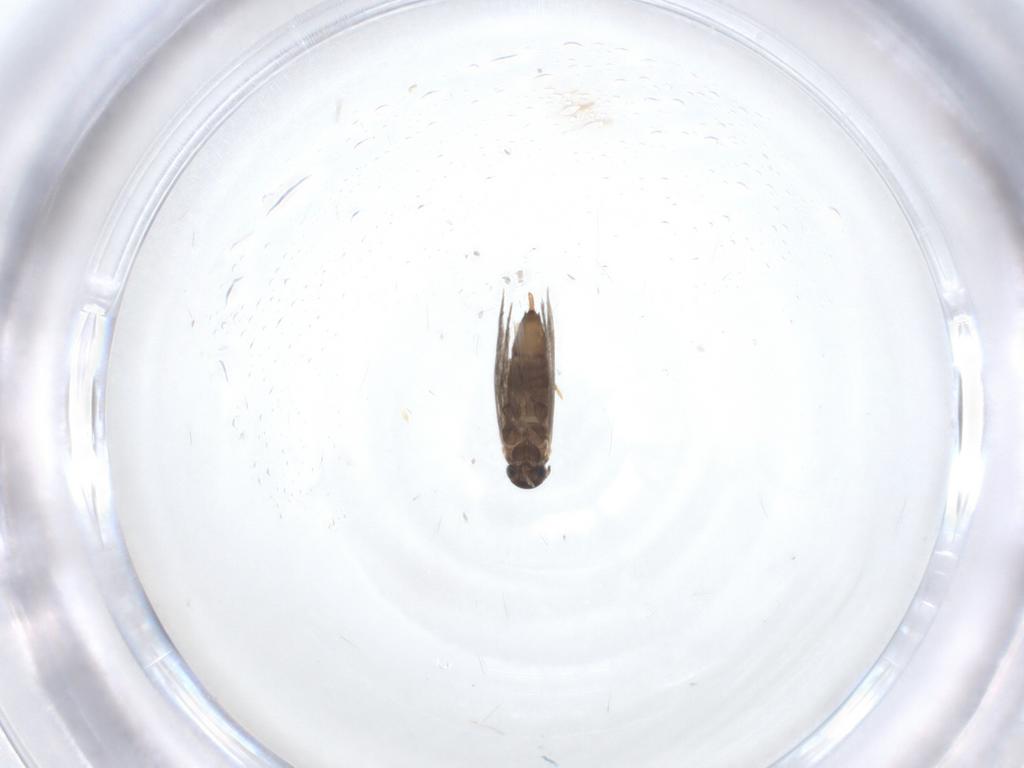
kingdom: Animalia
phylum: Arthropoda
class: Insecta
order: Lepidoptera
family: Heliozelidae
